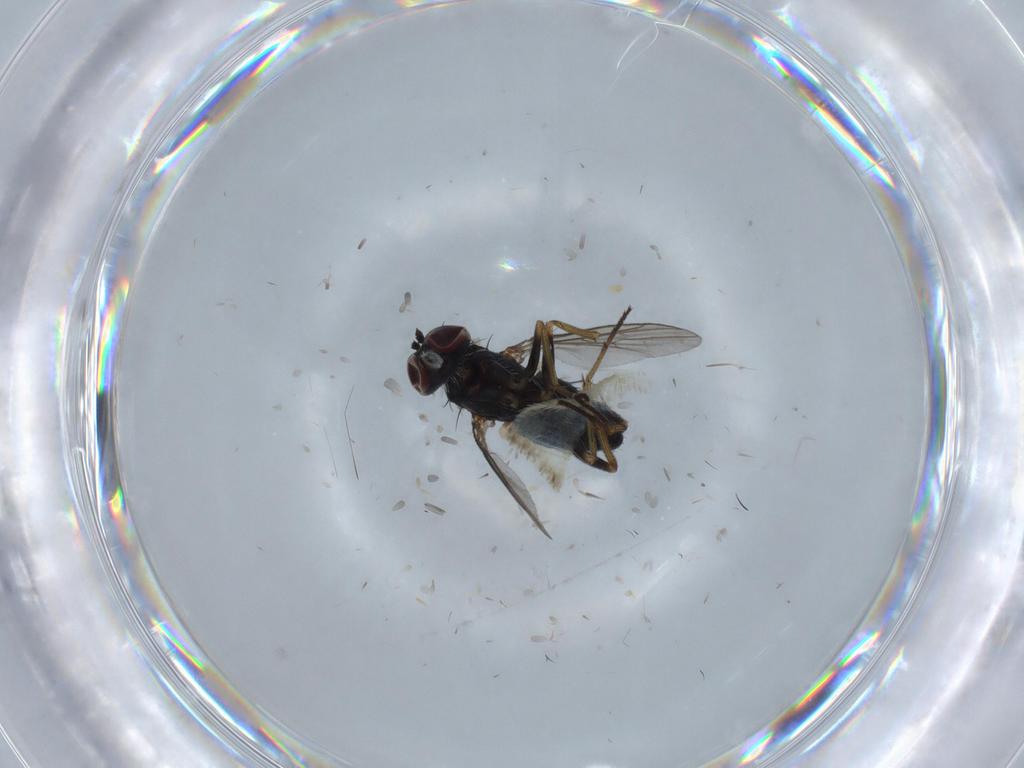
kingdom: Animalia
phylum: Arthropoda
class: Insecta
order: Diptera
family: Dolichopodidae
